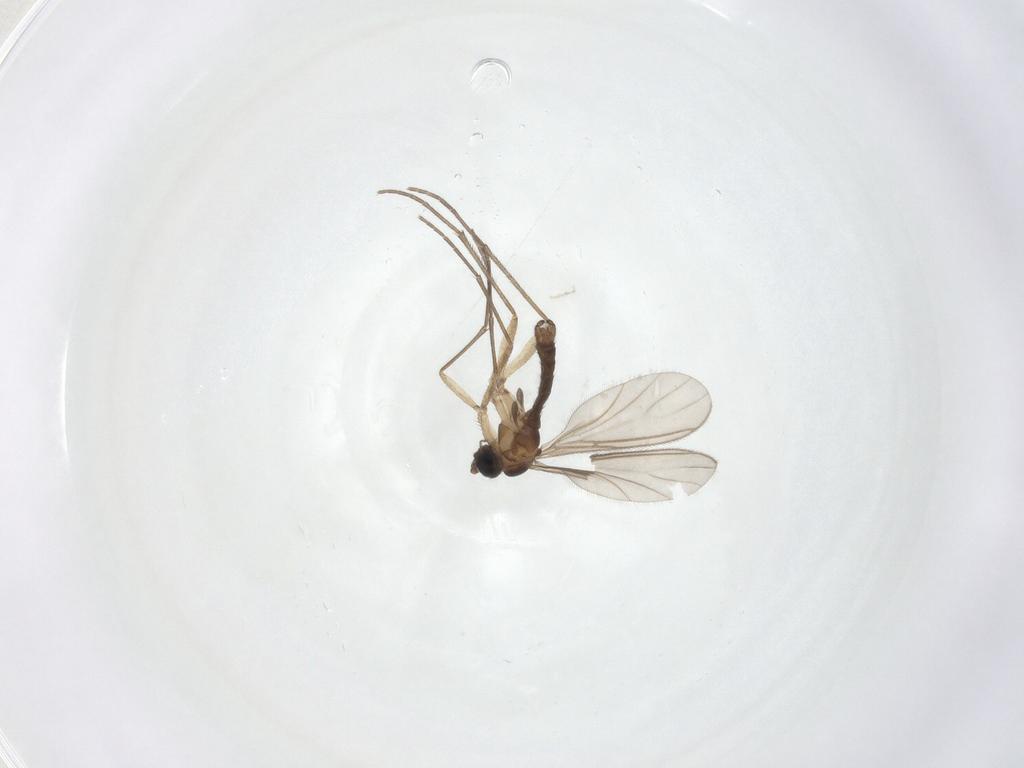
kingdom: Animalia
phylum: Arthropoda
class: Insecta
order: Diptera
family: Sciaridae
